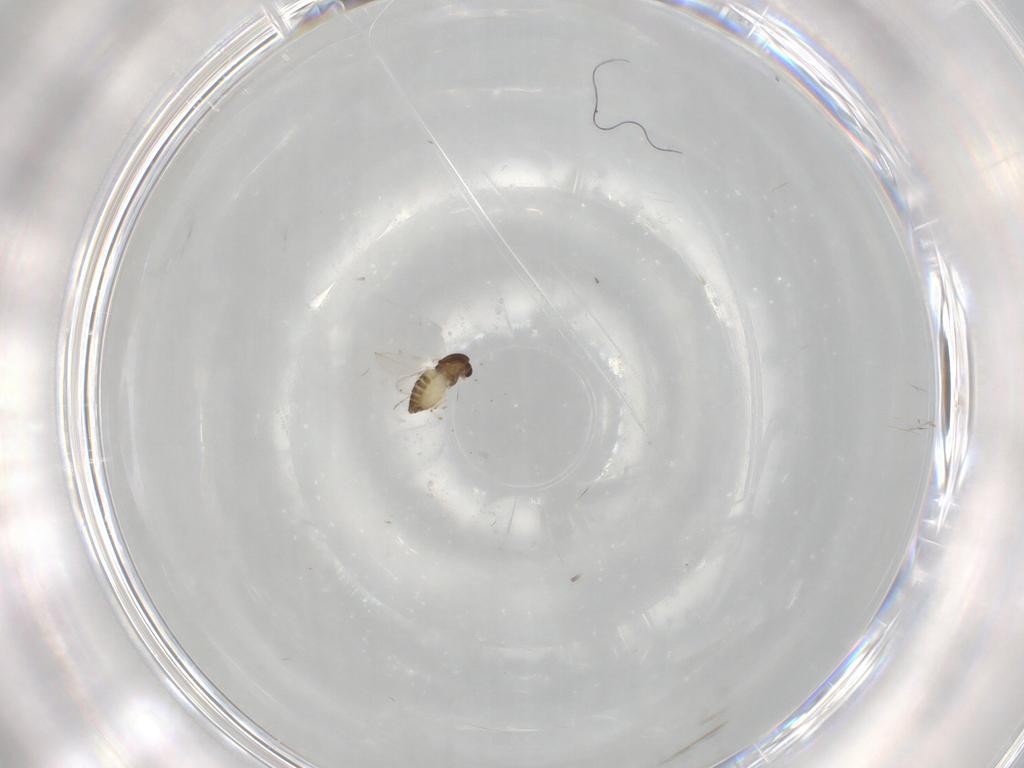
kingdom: Animalia
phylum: Arthropoda
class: Insecta
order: Diptera
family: Chironomidae
